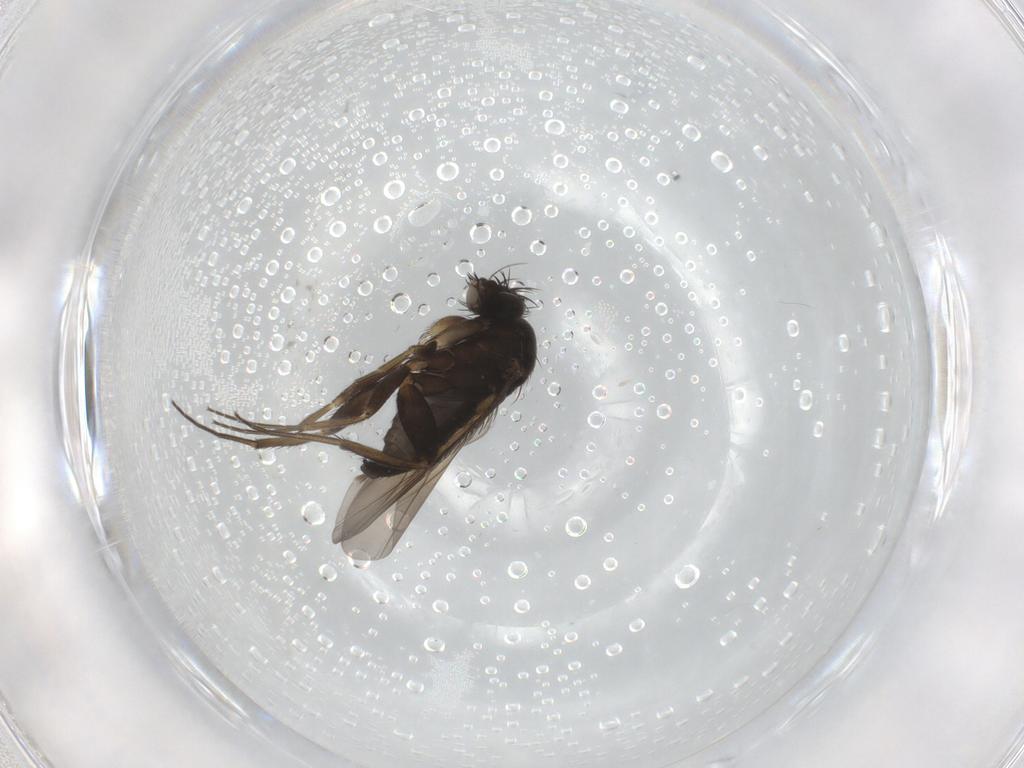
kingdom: Animalia
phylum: Arthropoda
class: Insecta
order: Diptera
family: Phoridae
